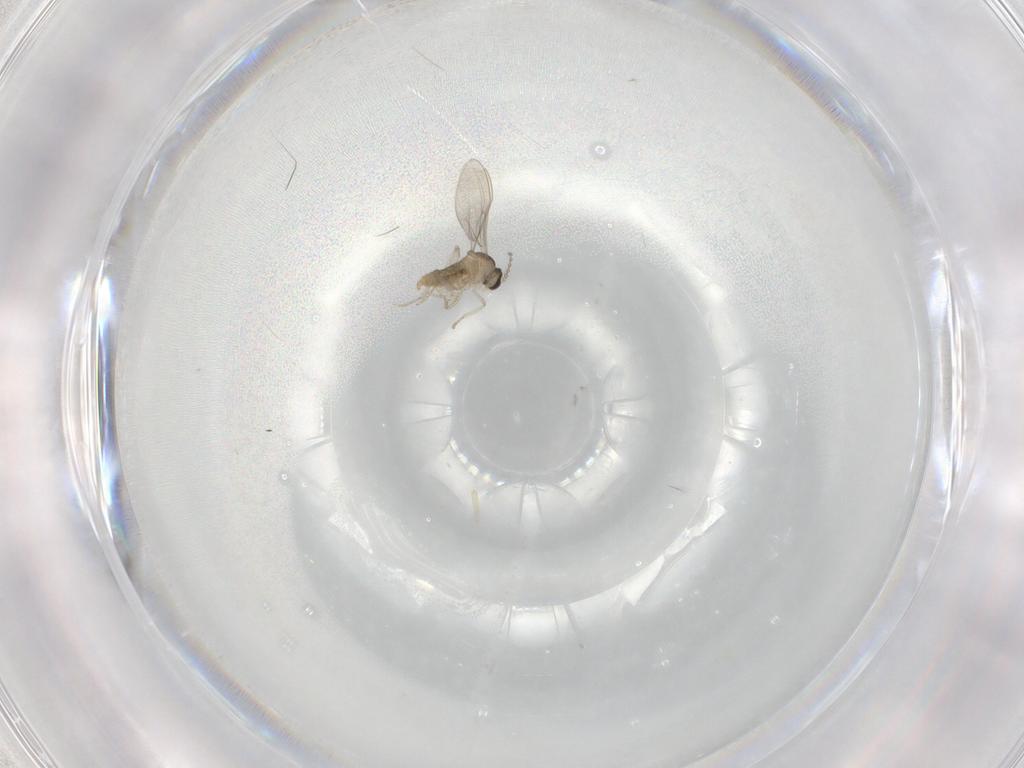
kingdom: Animalia
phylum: Arthropoda
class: Insecta
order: Diptera
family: Cecidomyiidae
